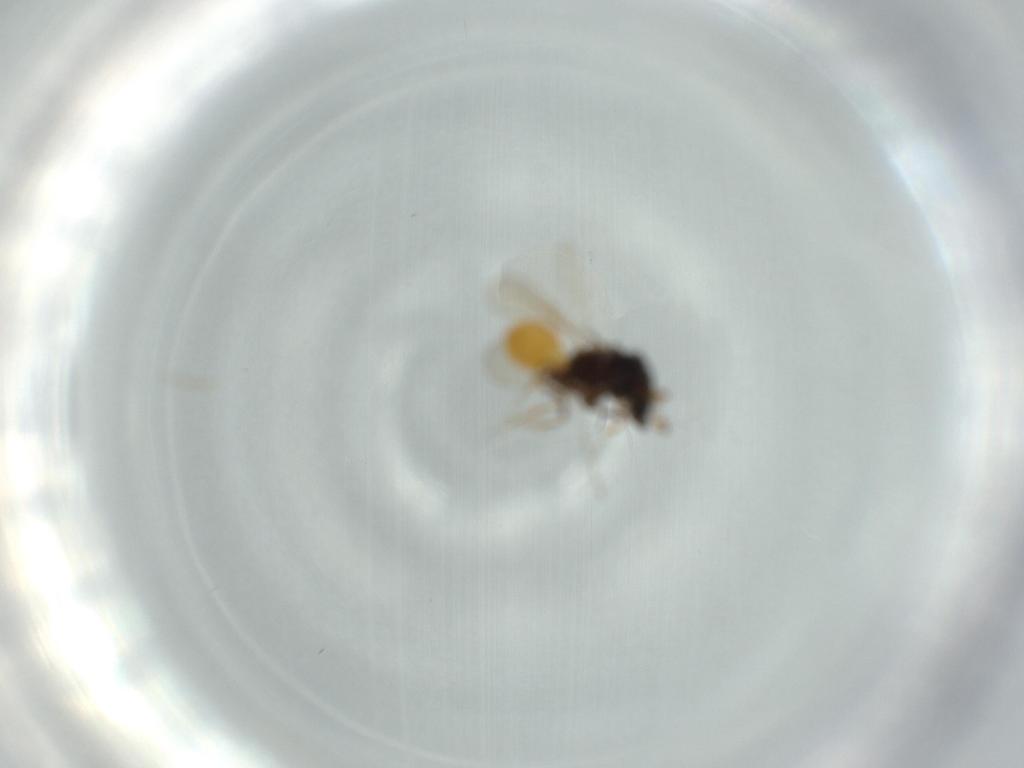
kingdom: Animalia
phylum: Arthropoda
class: Insecta
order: Hymenoptera
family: Scelionidae
